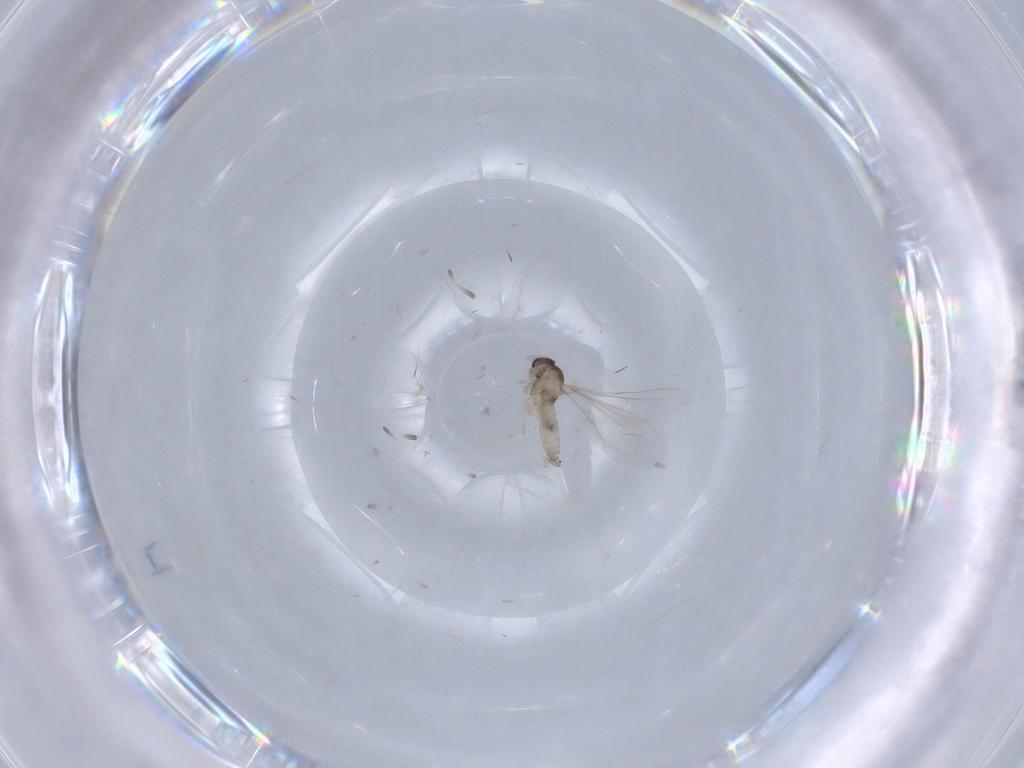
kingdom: Animalia
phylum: Arthropoda
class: Insecta
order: Diptera
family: Cecidomyiidae
